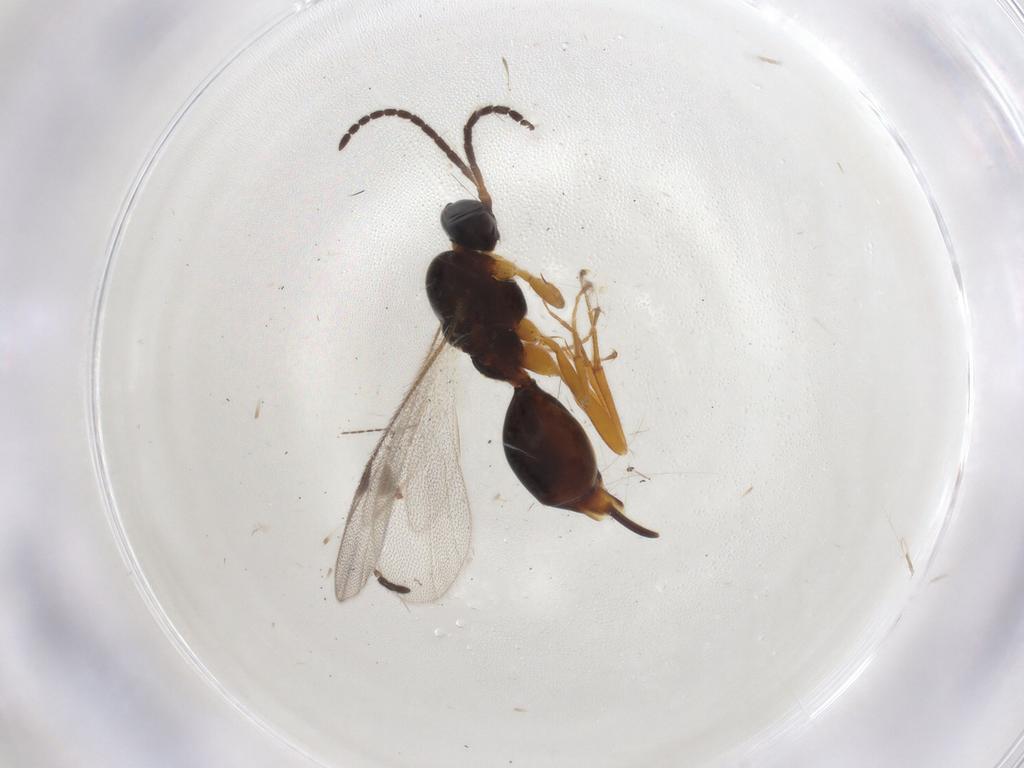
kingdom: Animalia
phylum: Arthropoda
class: Insecta
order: Hymenoptera
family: Braconidae
